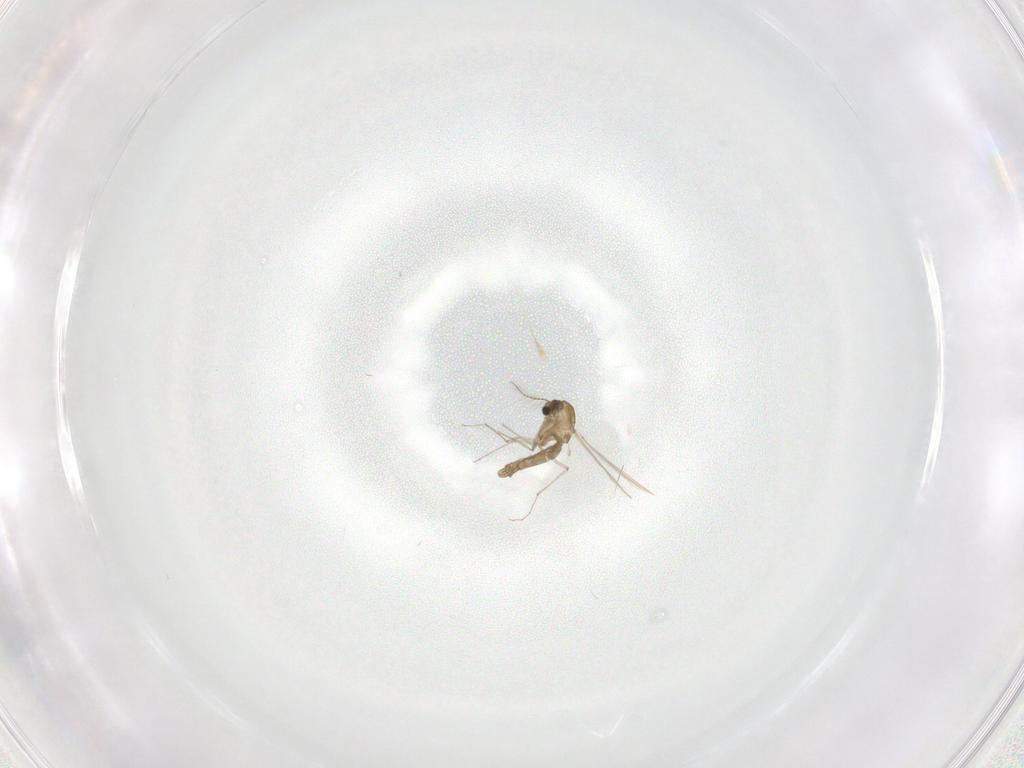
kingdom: Animalia
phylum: Arthropoda
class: Insecta
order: Diptera
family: Chironomidae
